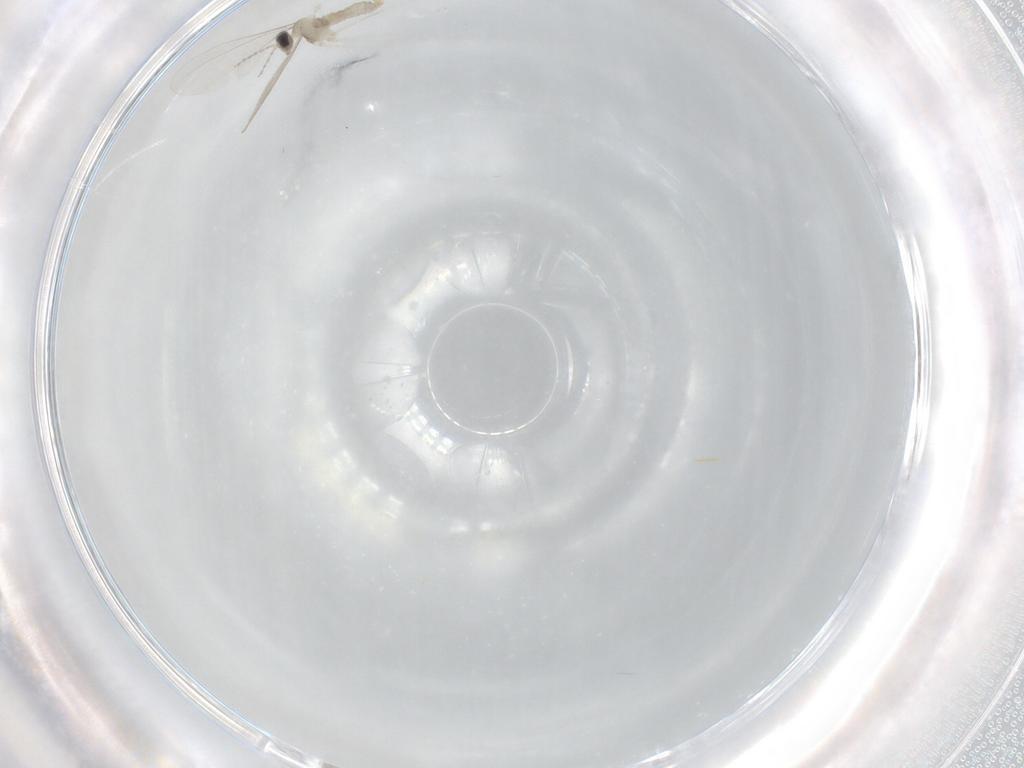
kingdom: Animalia
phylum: Arthropoda
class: Insecta
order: Diptera
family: Cecidomyiidae
